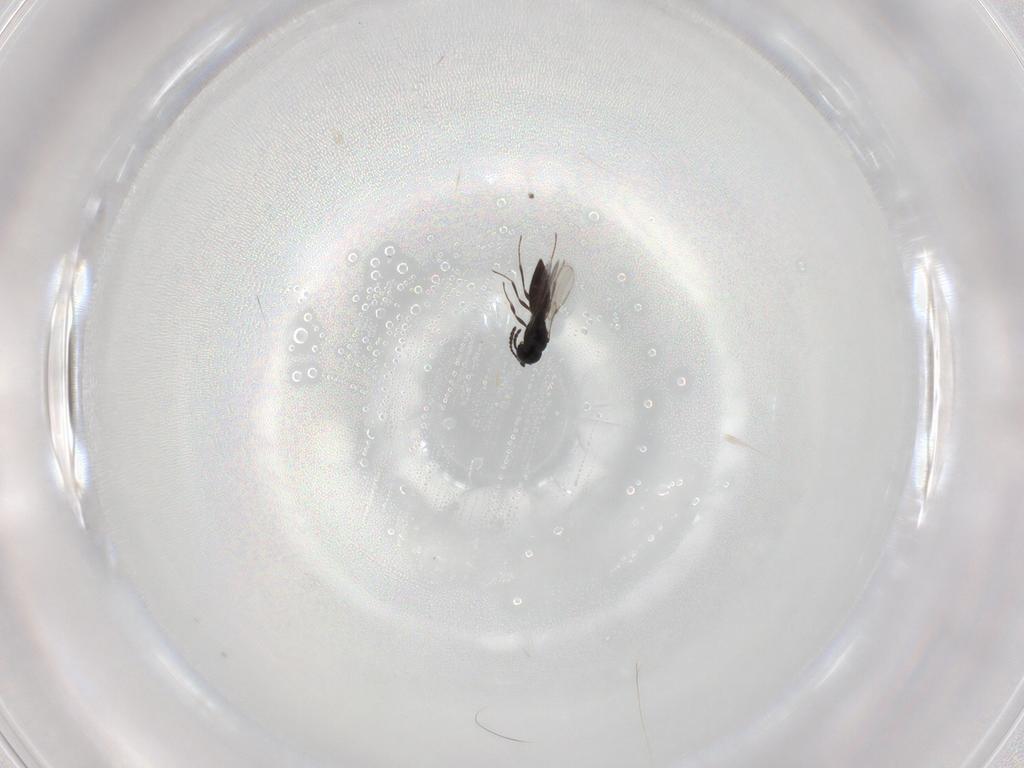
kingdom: Animalia
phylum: Arthropoda
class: Insecta
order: Hymenoptera
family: Scelionidae
